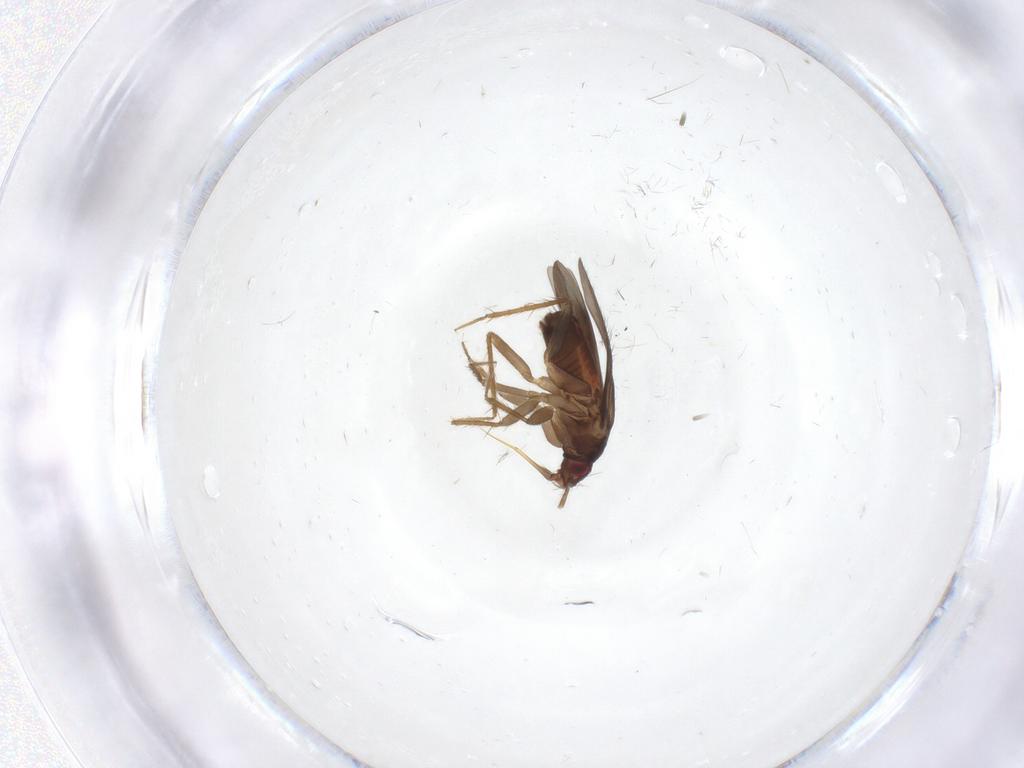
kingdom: Animalia
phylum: Arthropoda
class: Insecta
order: Hemiptera
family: Ceratocombidae
